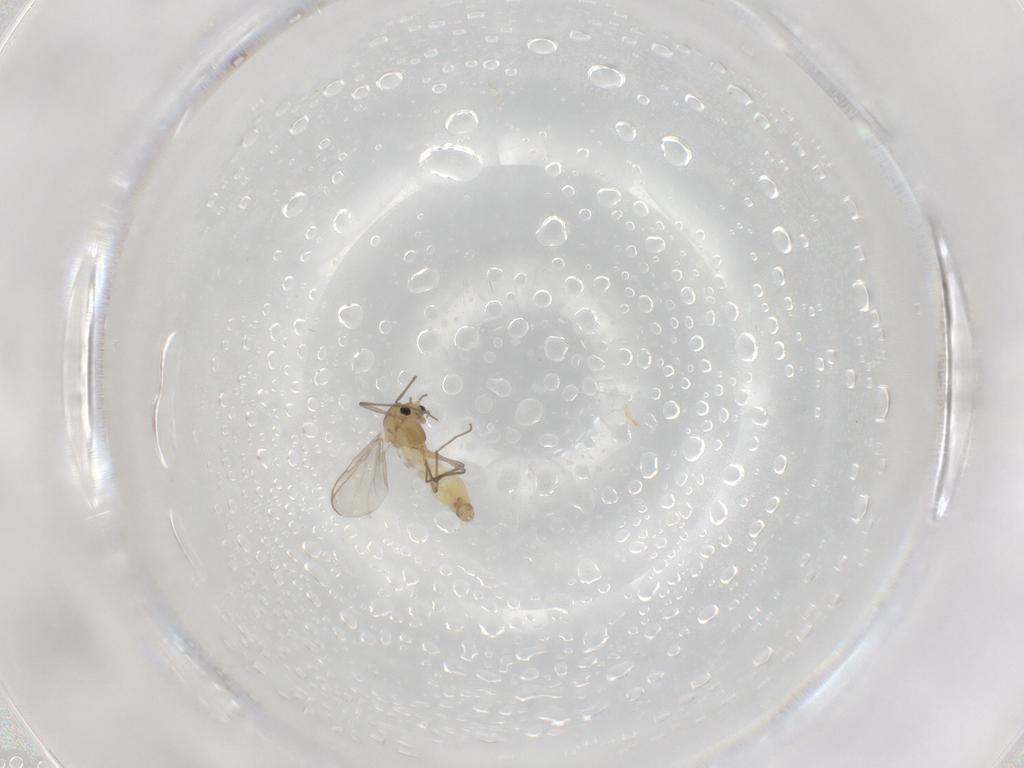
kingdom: Animalia
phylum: Arthropoda
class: Insecta
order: Diptera
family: Chironomidae
